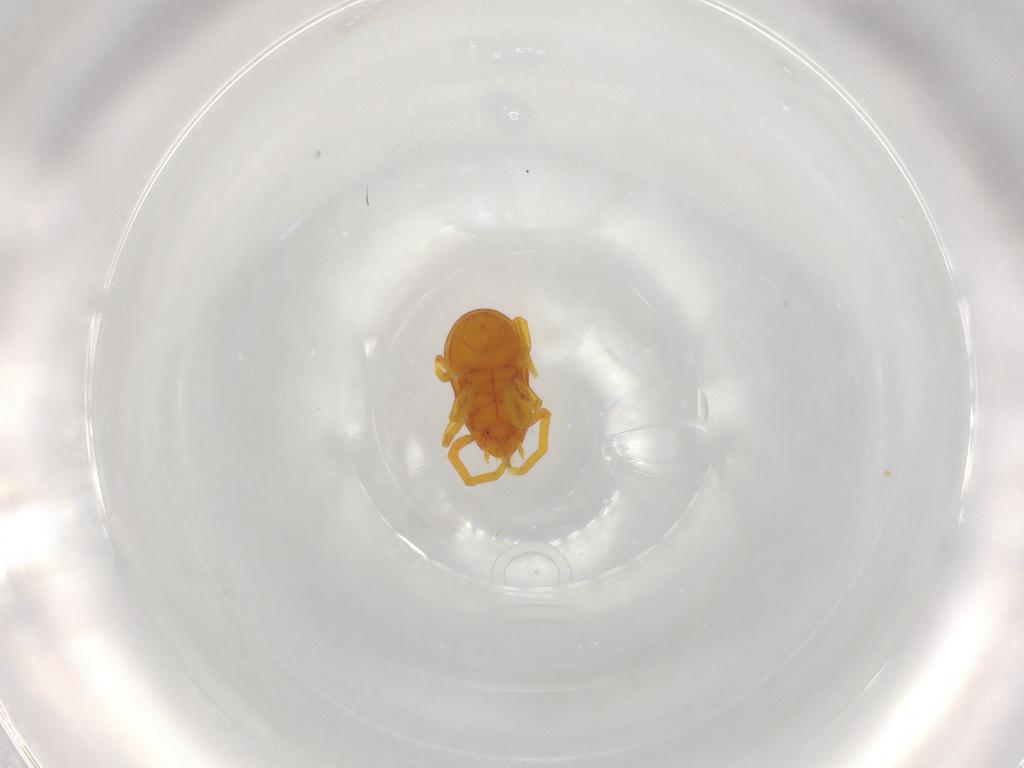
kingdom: Animalia
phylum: Arthropoda
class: Arachnida
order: Trombidiformes
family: Labidostommidae
